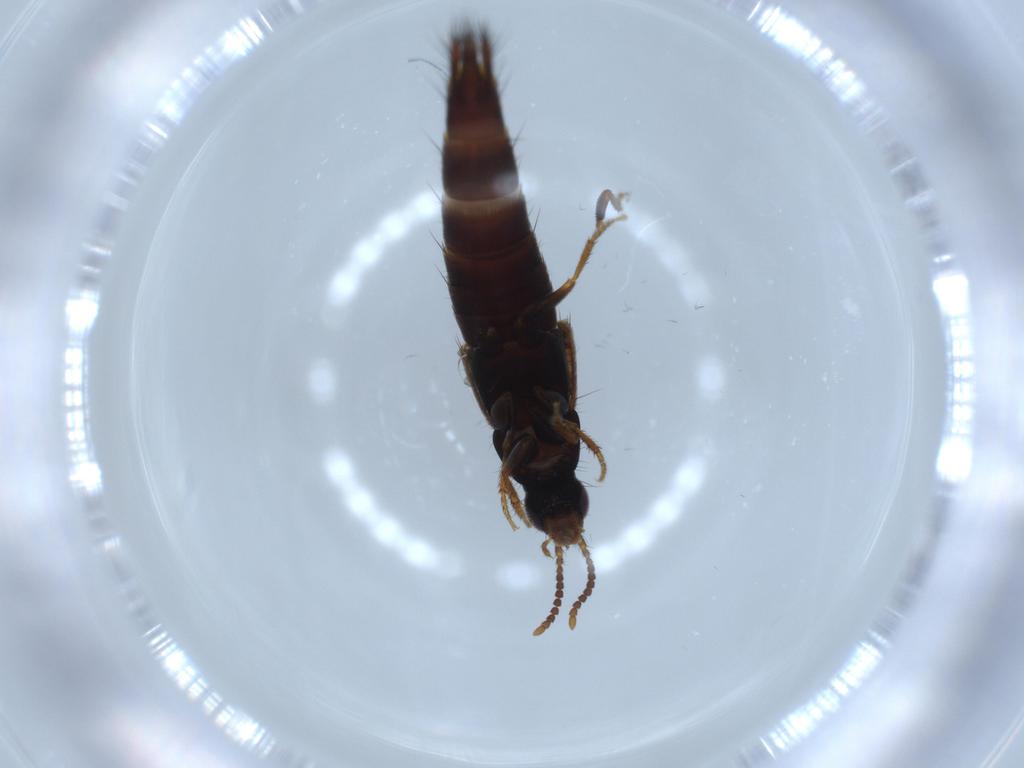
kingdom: Animalia
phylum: Arthropoda
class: Insecta
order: Coleoptera
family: Staphylinidae
